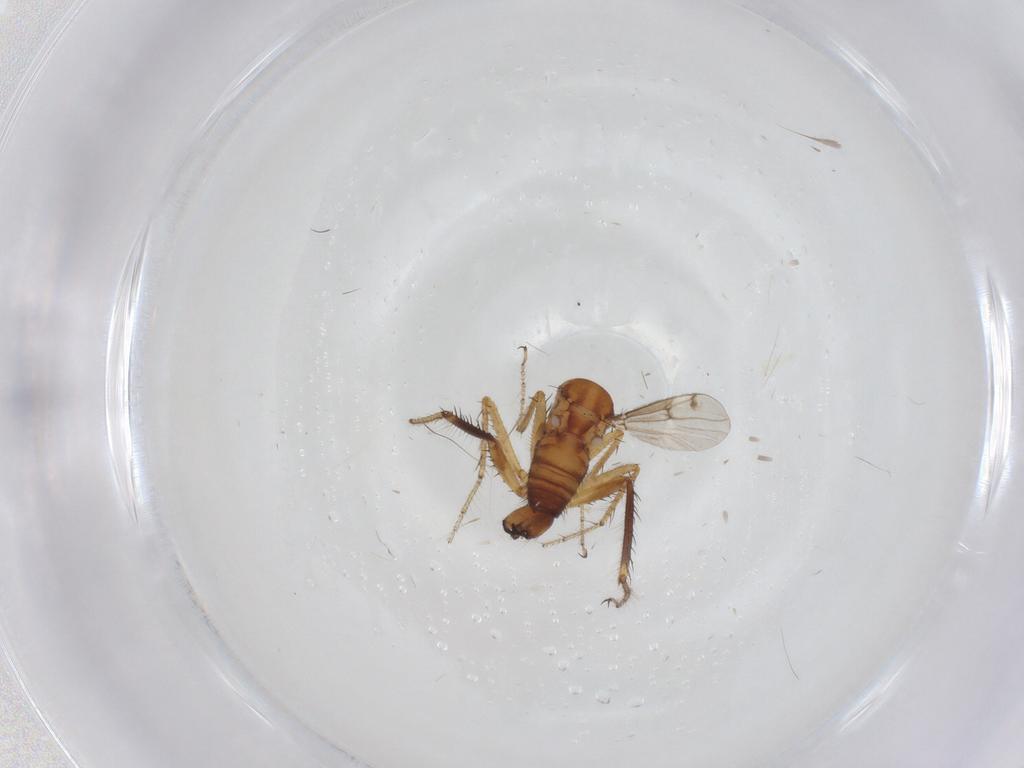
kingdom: Animalia
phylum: Arthropoda
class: Insecta
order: Diptera
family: Ceratopogonidae
